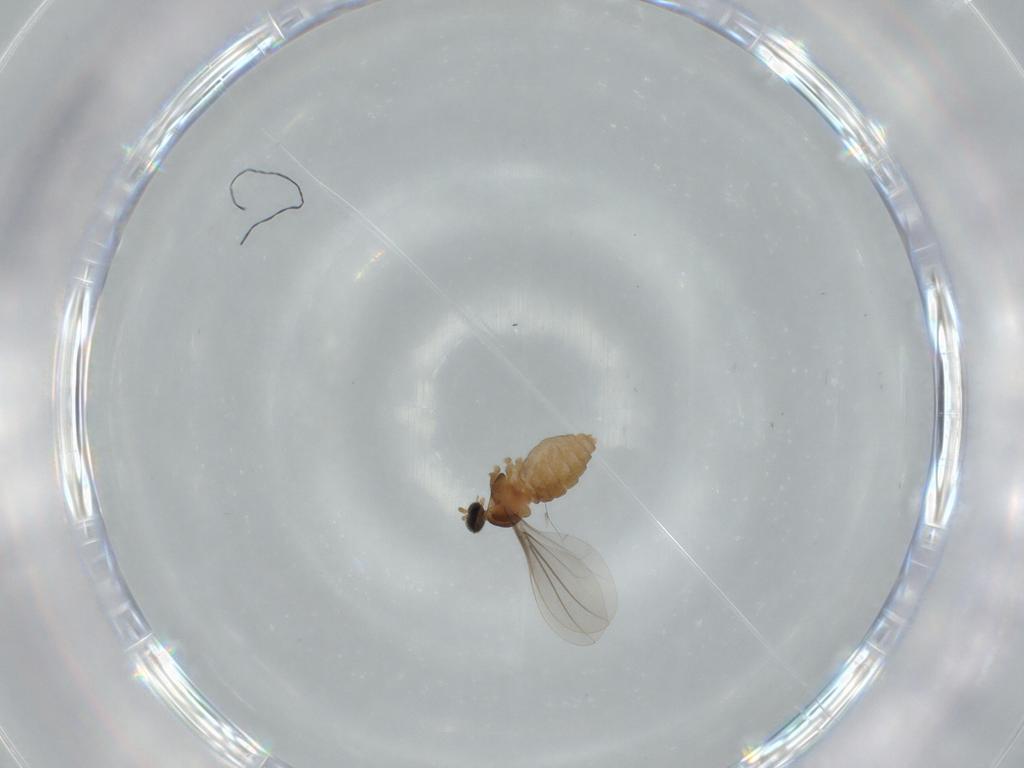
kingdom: Animalia
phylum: Arthropoda
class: Insecta
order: Diptera
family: Cecidomyiidae
